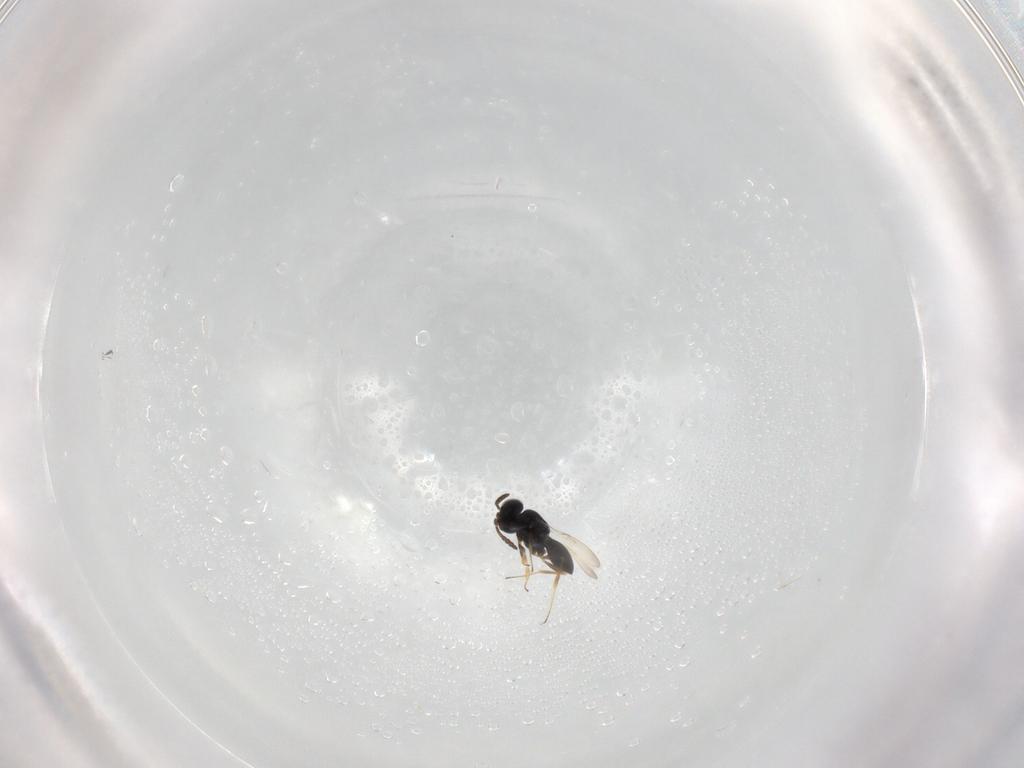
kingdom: Animalia
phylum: Arthropoda
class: Insecta
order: Hymenoptera
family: Scelionidae
